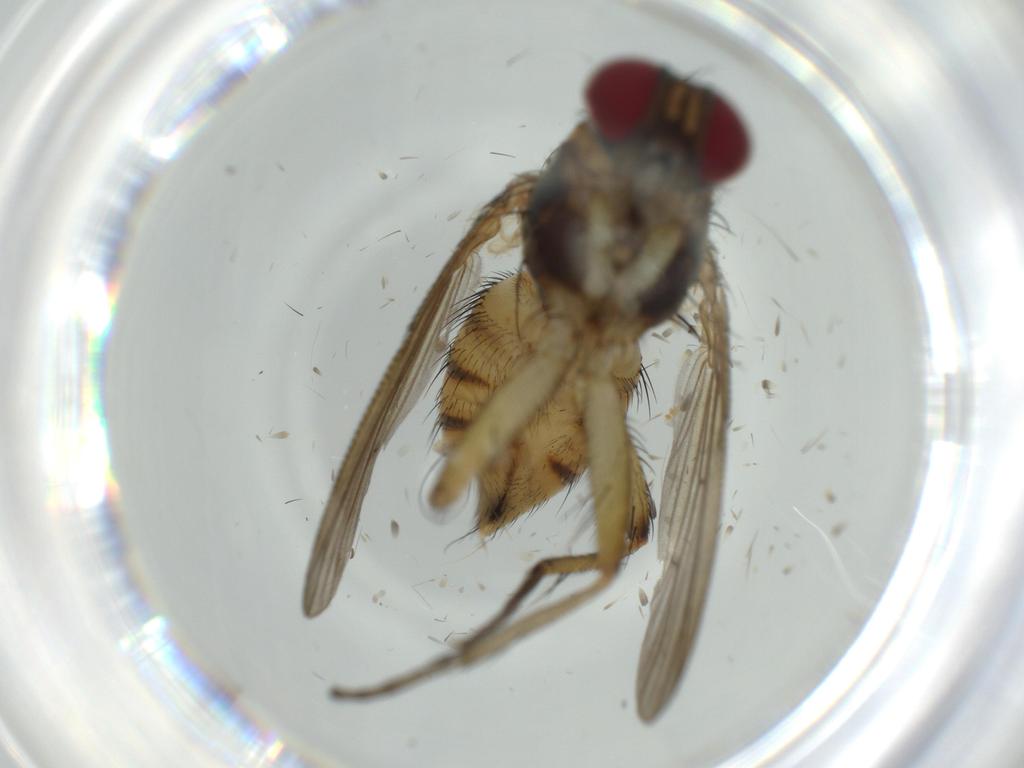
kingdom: Animalia
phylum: Arthropoda
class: Insecta
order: Diptera
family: Muscidae
